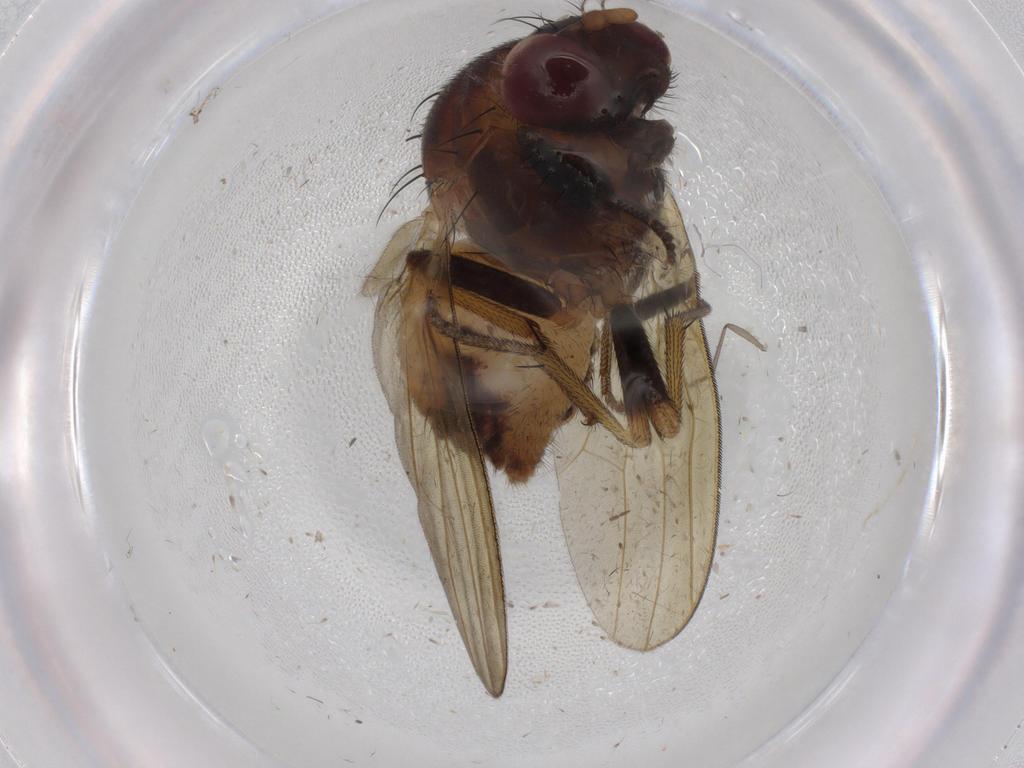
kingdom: Animalia
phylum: Arthropoda
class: Insecta
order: Diptera
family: Lauxaniidae
